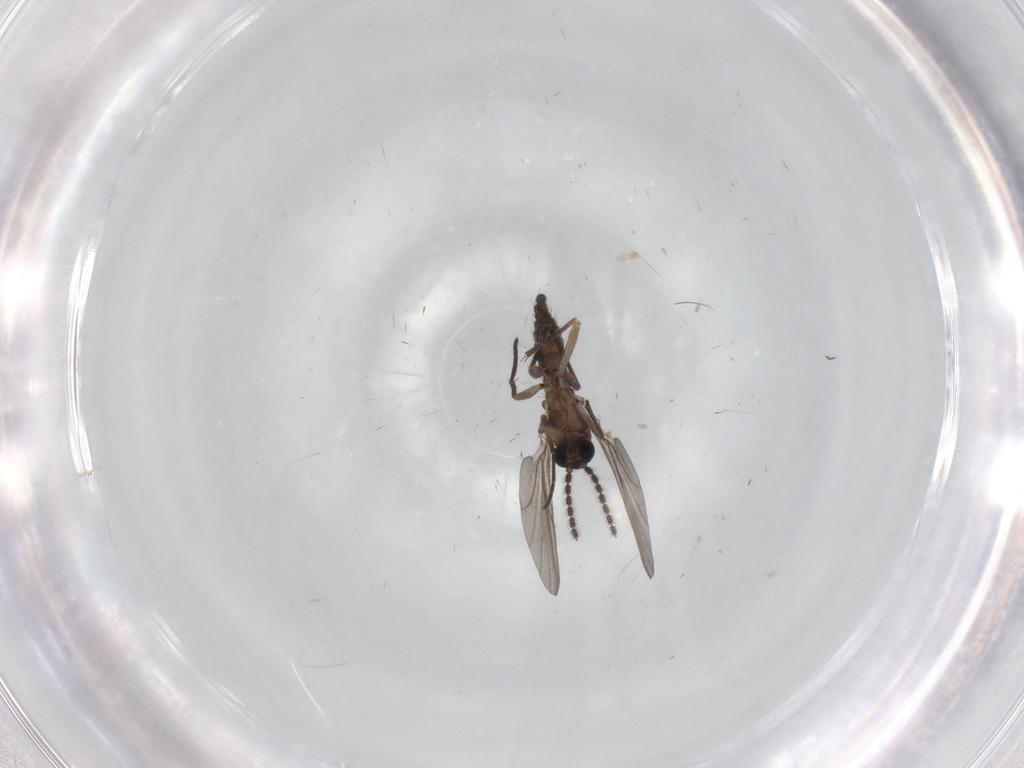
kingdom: Animalia
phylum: Arthropoda
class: Insecta
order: Diptera
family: Sciaridae
